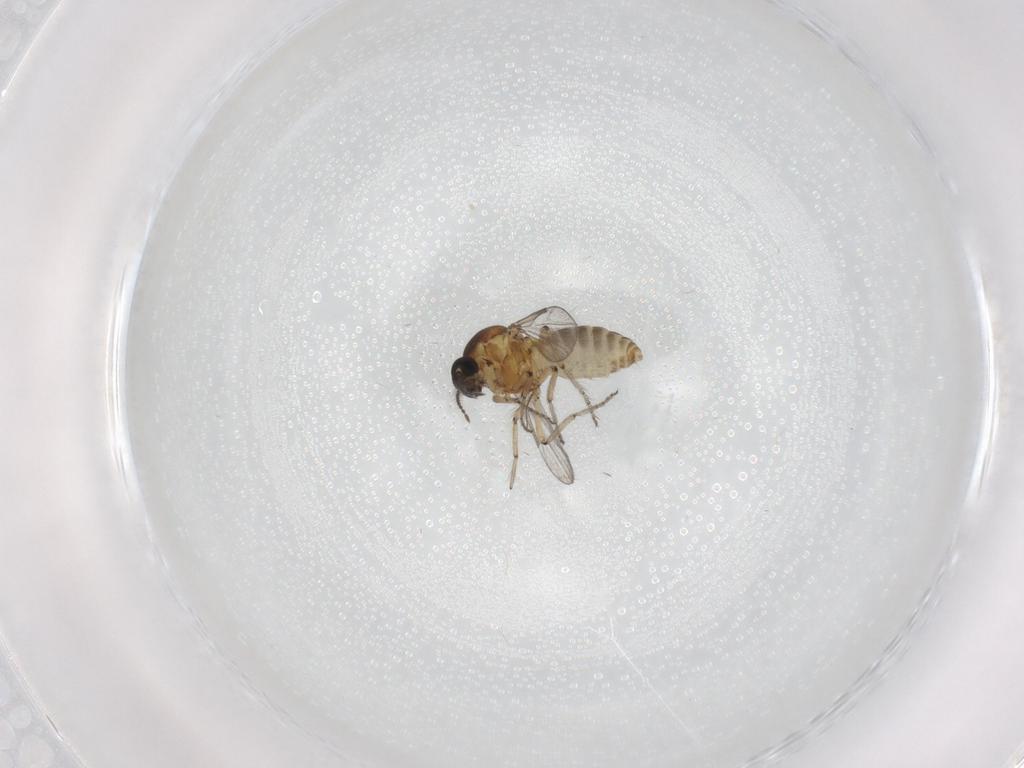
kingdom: Animalia
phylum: Arthropoda
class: Insecta
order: Diptera
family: Ceratopogonidae
